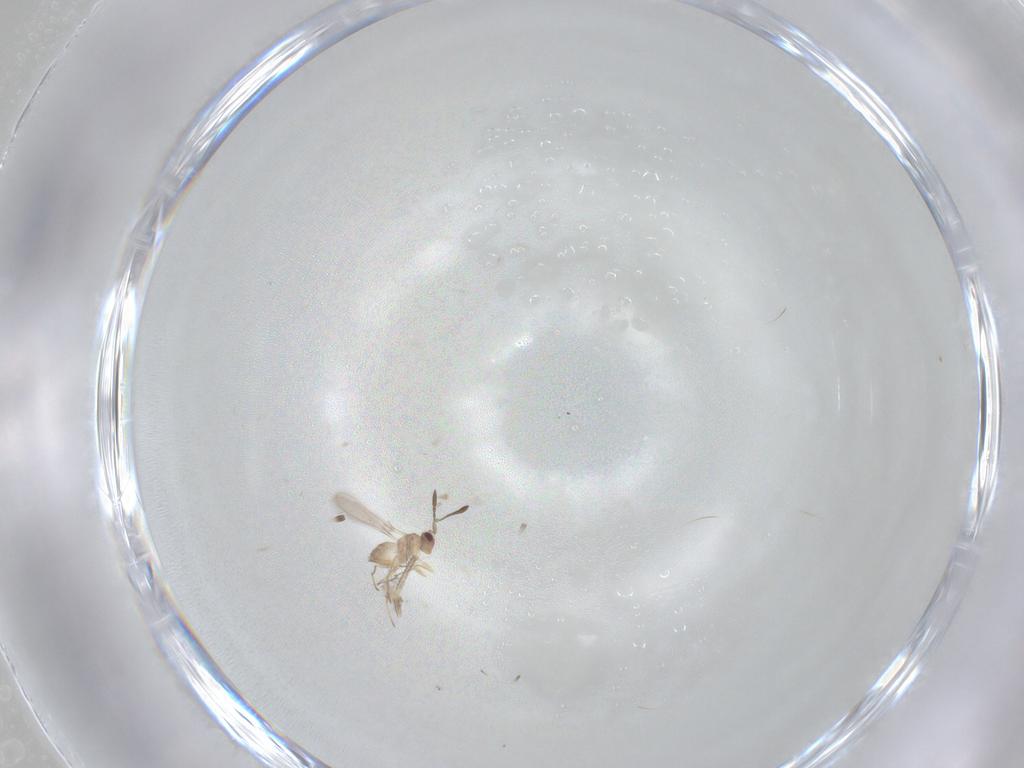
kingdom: Animalia
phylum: Arthropoda
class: Insecta
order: Hymenoptera
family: Mymaridae
